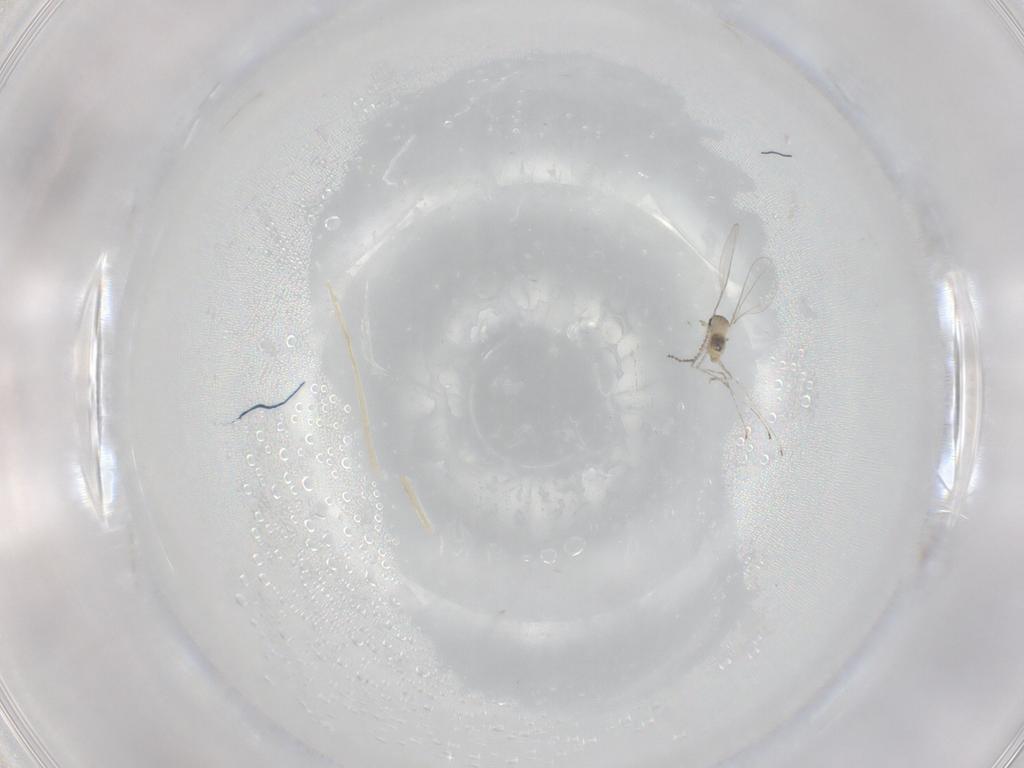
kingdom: Animalia
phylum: Arthropoda
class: Insecta
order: Diptera
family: Cecidomyiidae
